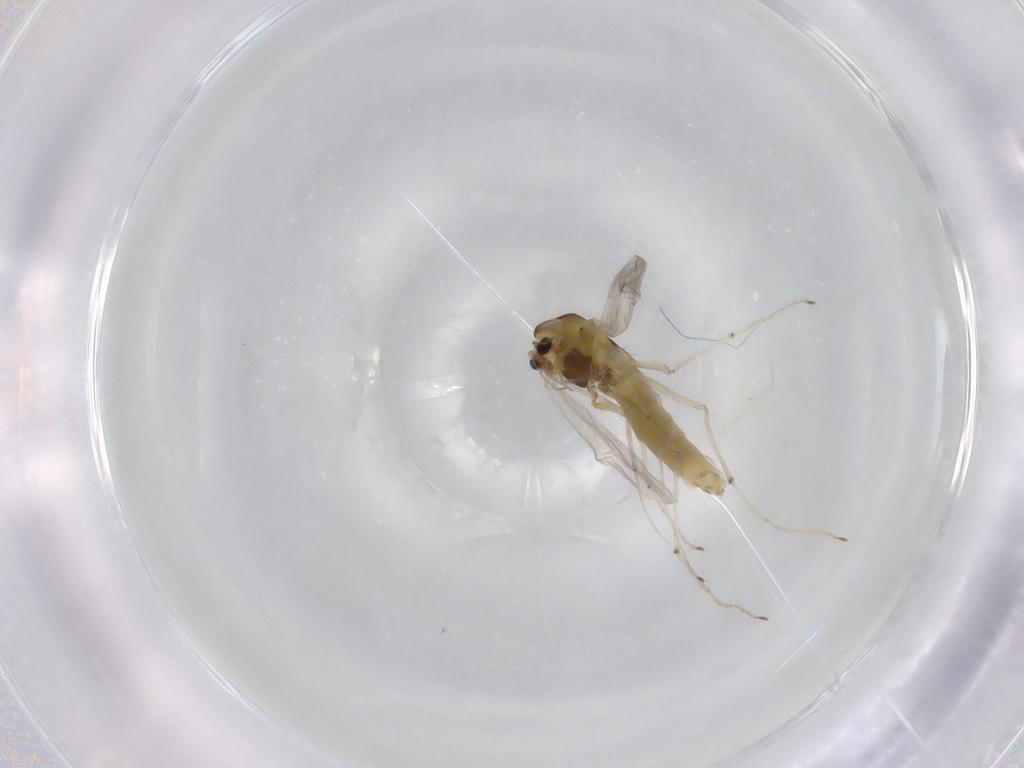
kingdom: Animalia
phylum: Arthropoda
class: Insecta
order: Diptera
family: Chironomidae
